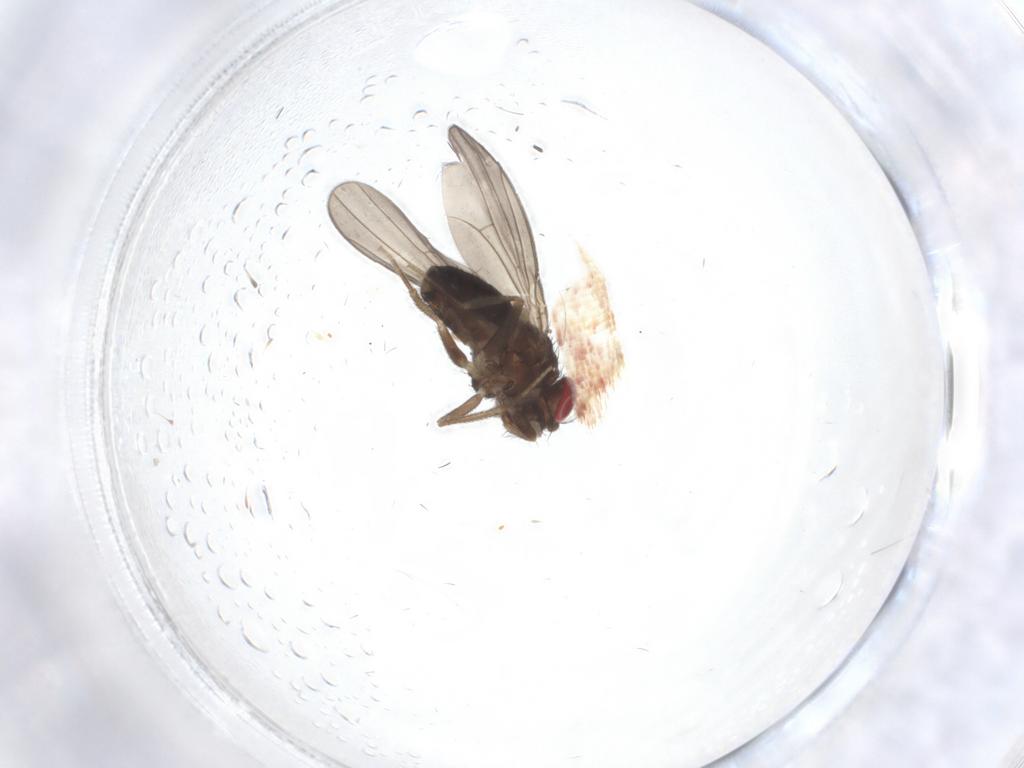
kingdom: Animalia
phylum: Arthropoda
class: Insecta
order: Diptera
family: Drosophilidae
